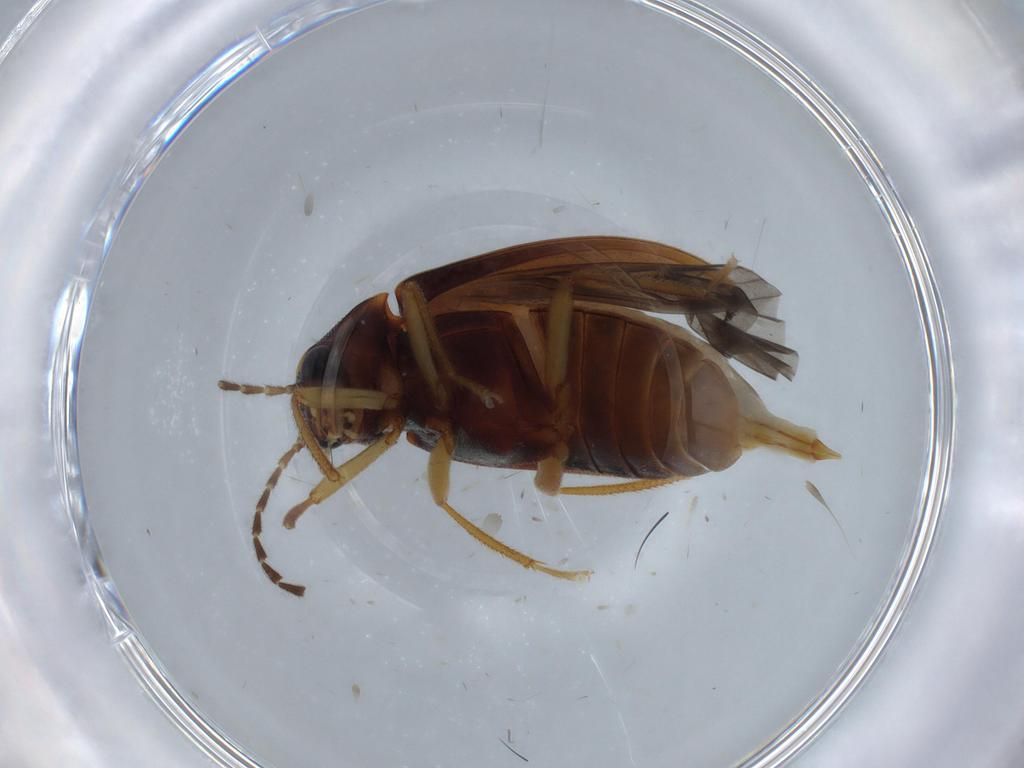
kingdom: Animalia
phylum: Arthropoda
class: Insecta
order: Coleoptera
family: Ptilodactylidae
